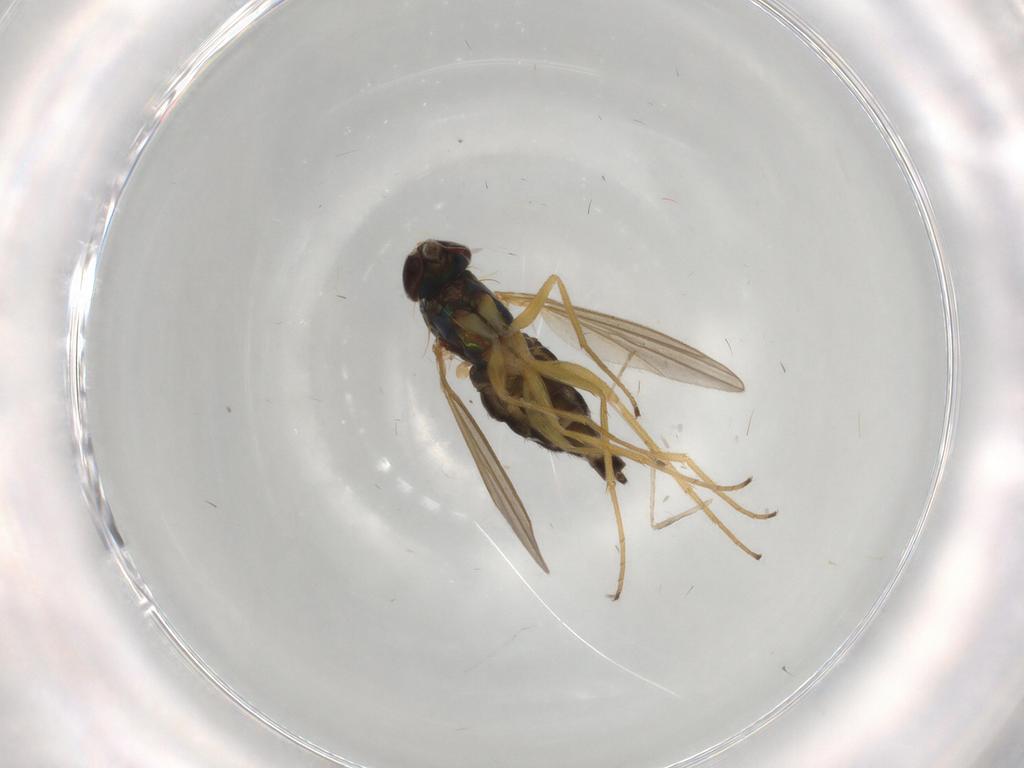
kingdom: Animalia
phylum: Arthropoda
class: Insecta
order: Diptera
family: Dolichopodidae
